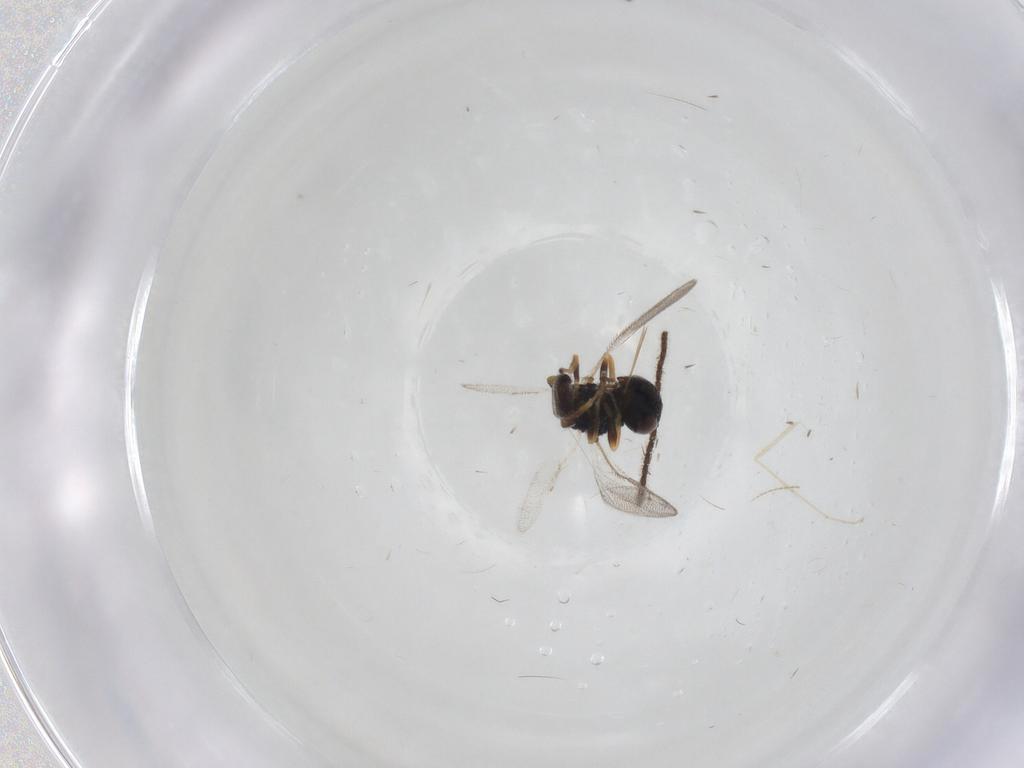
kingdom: Animalia
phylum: Arthropoda
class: Insecta
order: Hymenoptera
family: Pteromalidae
